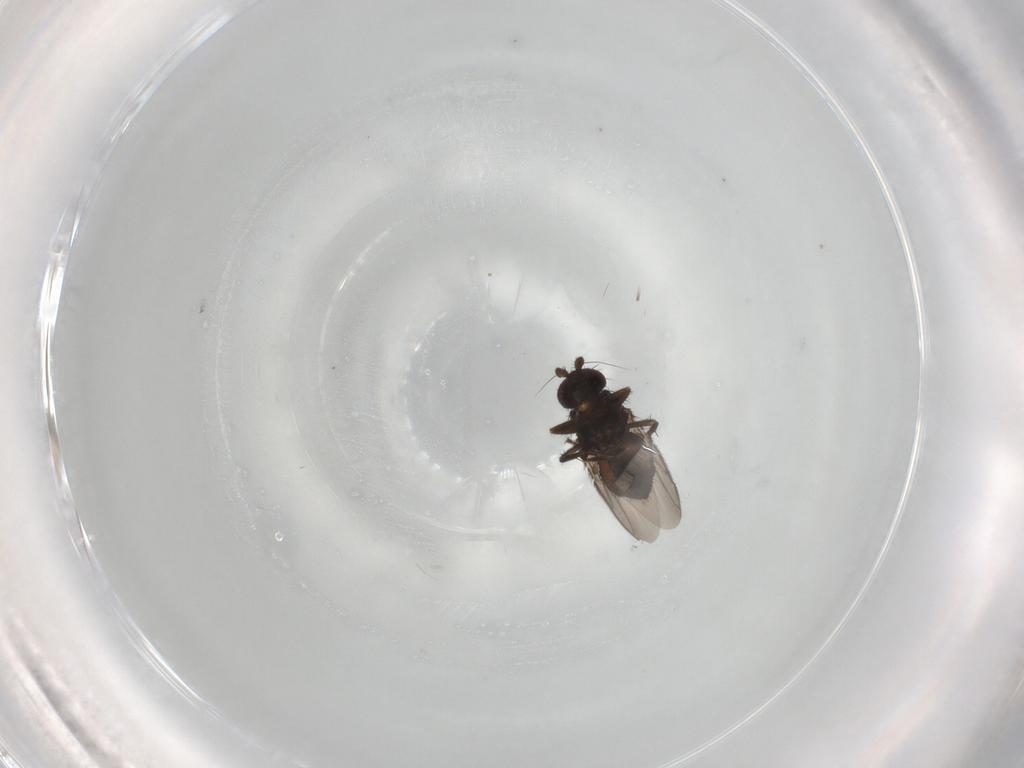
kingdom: Animalia
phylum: Arthropoda
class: Insecta
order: Diptera
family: Sphaeroceridae
